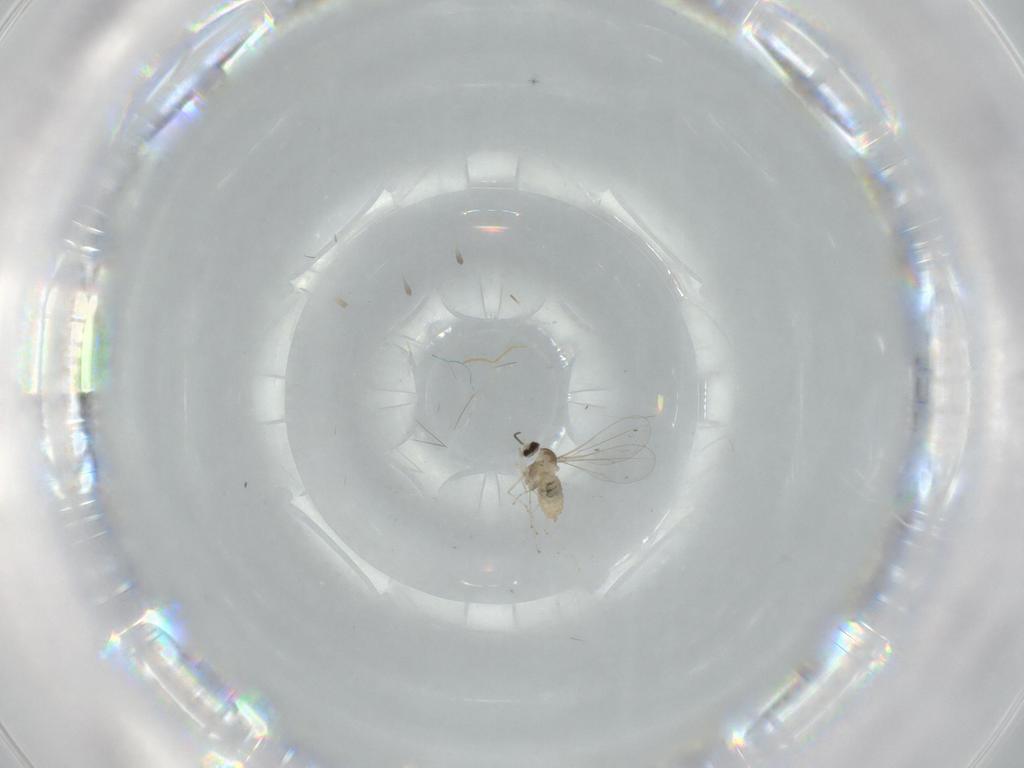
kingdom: Animalia
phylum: Arthropoda
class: Insecta
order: Diptera
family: Cecidomyiidae
